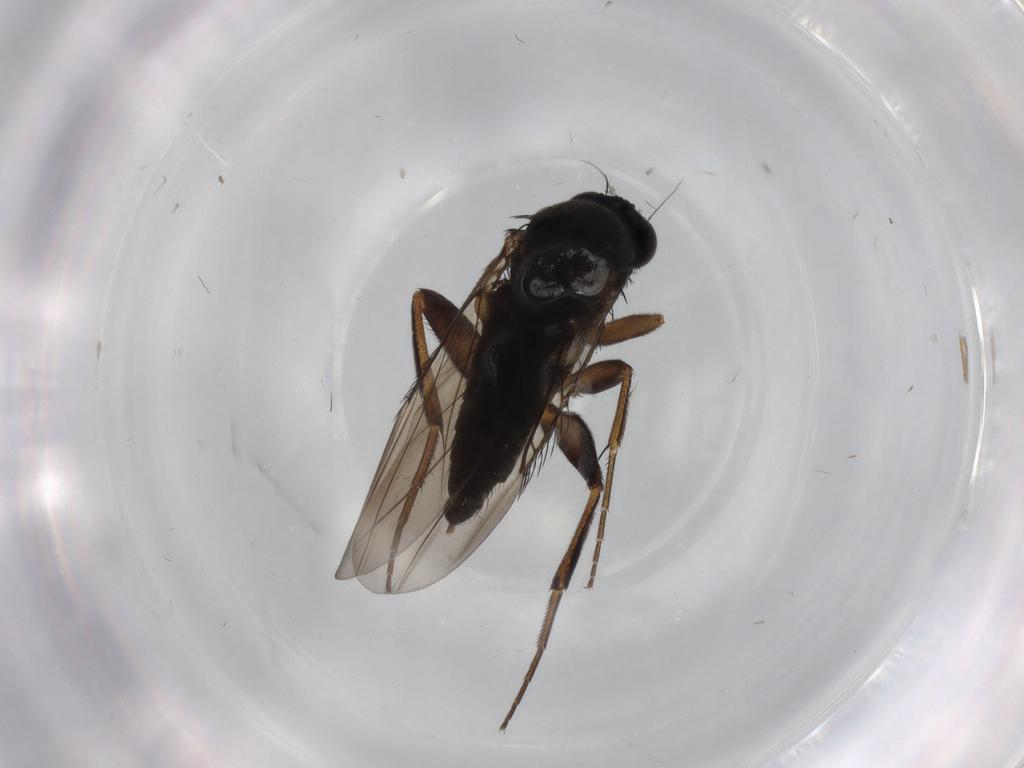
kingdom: Animalia
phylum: Arthropoda
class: Insecta
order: Diptera
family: Phoridae
